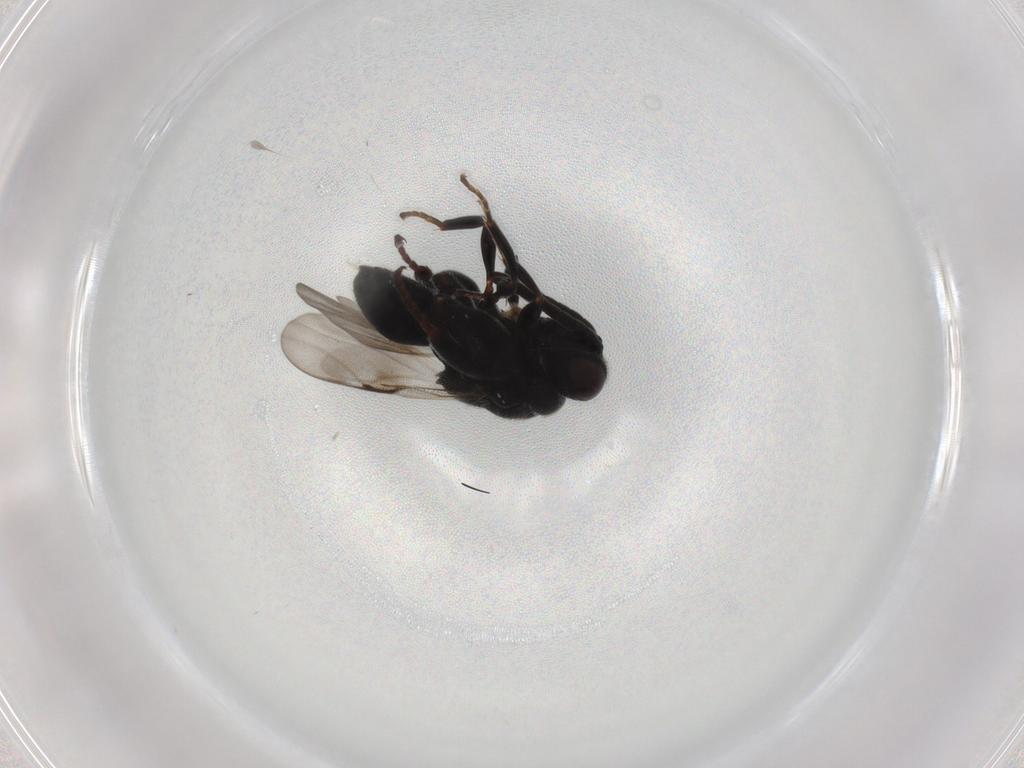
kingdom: Animalia
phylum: Arthropoda
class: Insecta
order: Hymenoptera
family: Chalcididae
